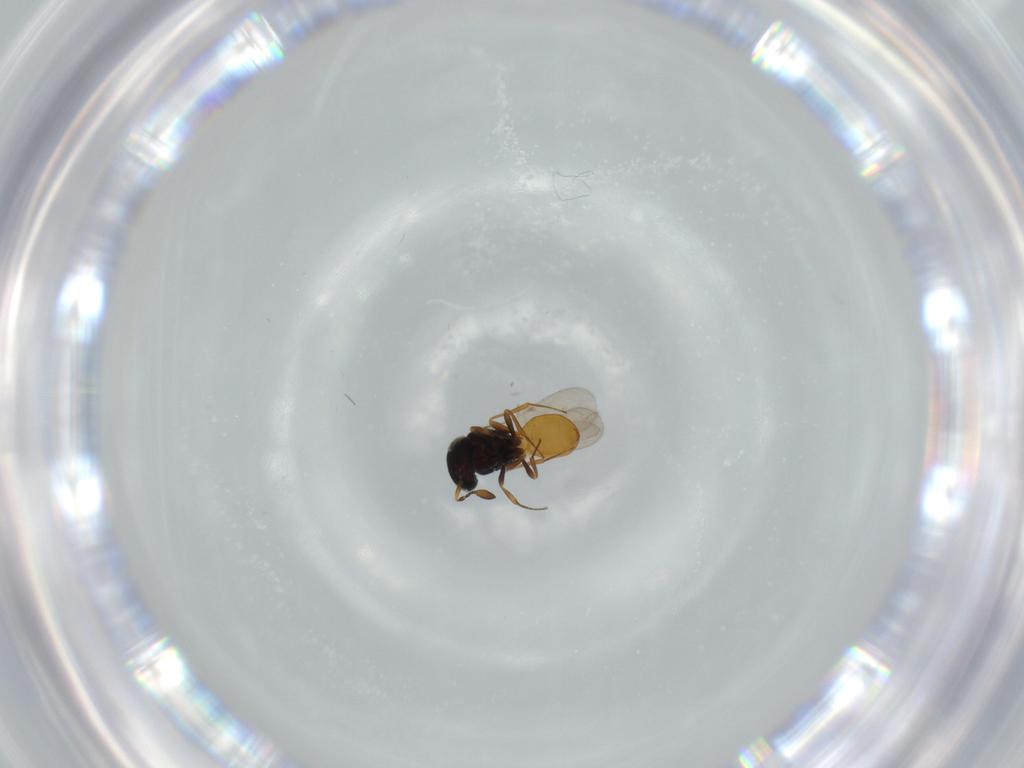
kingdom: Animalia
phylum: Arthropoda
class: Insecta
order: Hymenoptera
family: Scelionidae
